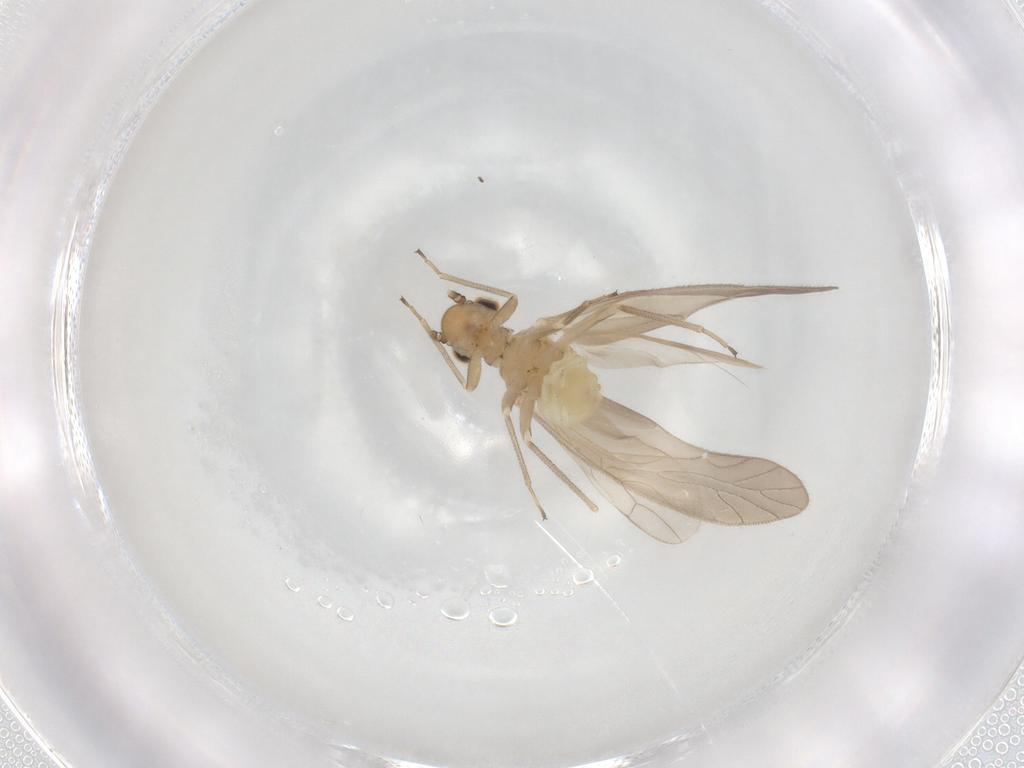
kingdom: Animalia
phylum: Arthropoda
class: Insecta
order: Psocodea
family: Caeciliusidae
